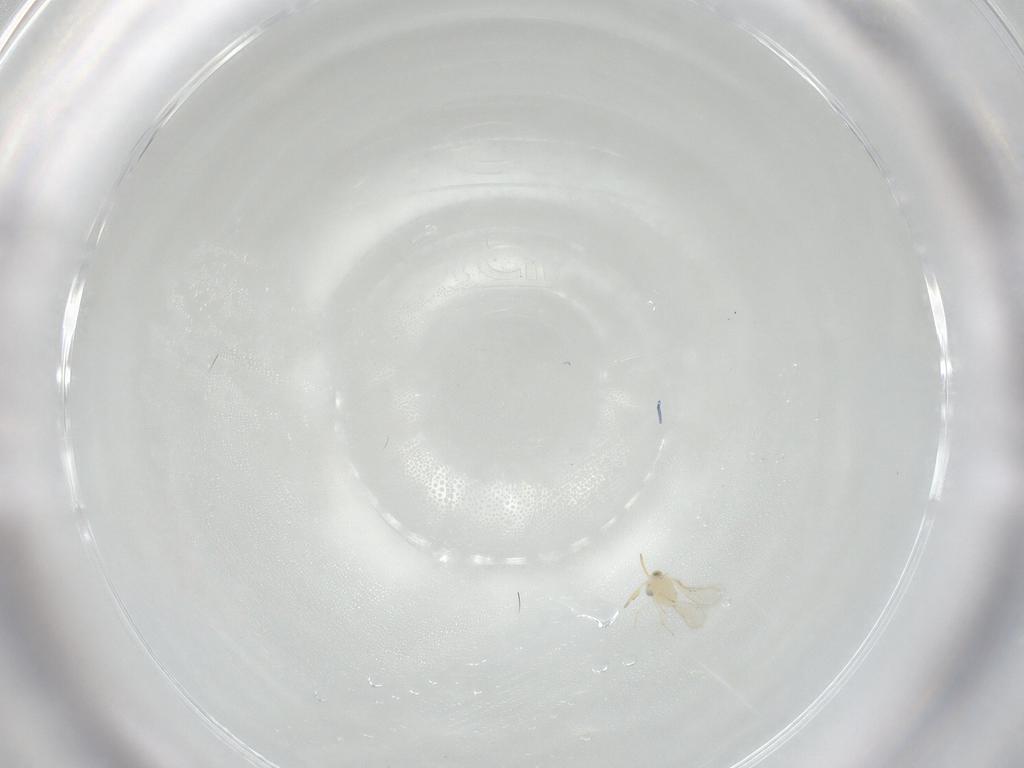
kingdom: Animalia
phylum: Arthropoda
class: Insecta
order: Hymenoptera
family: Aphelinidae
